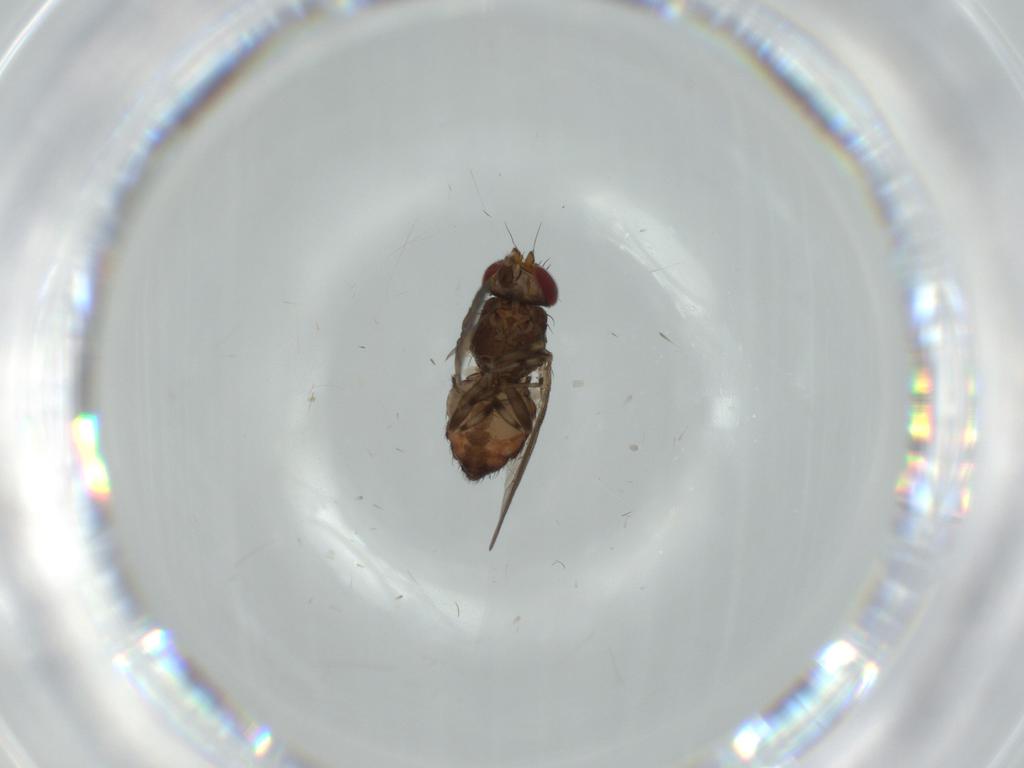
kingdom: Animalia
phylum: Arthropoda
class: Insecta
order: Diptera
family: Heleomyzidae
